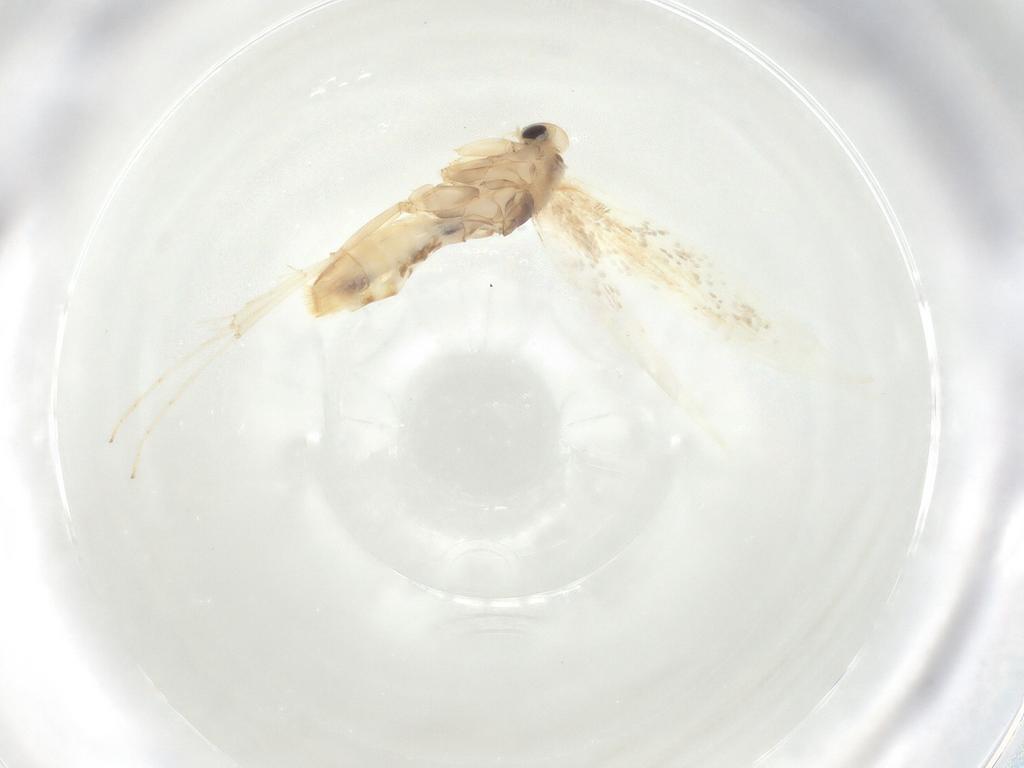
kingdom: Animalia
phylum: Arthropoda
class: Insecta
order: Lepidoptera
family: Gracillariidae
